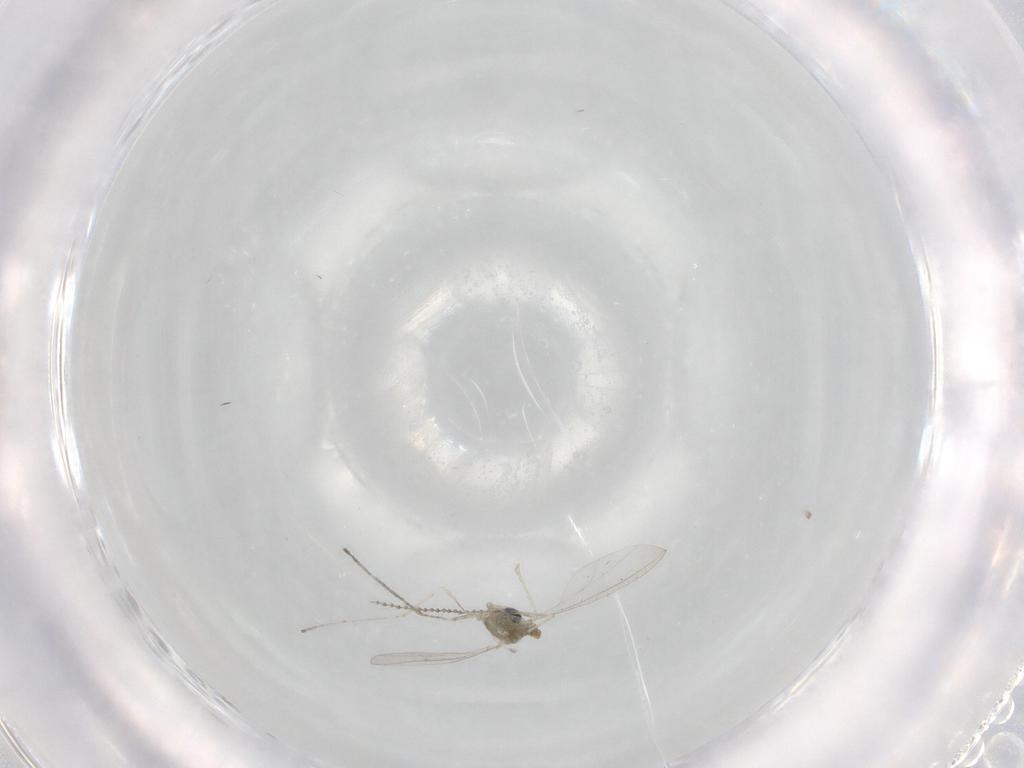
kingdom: Animalia
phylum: Arthropoda
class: Insecta
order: Diptera
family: Cecidomyiidae
